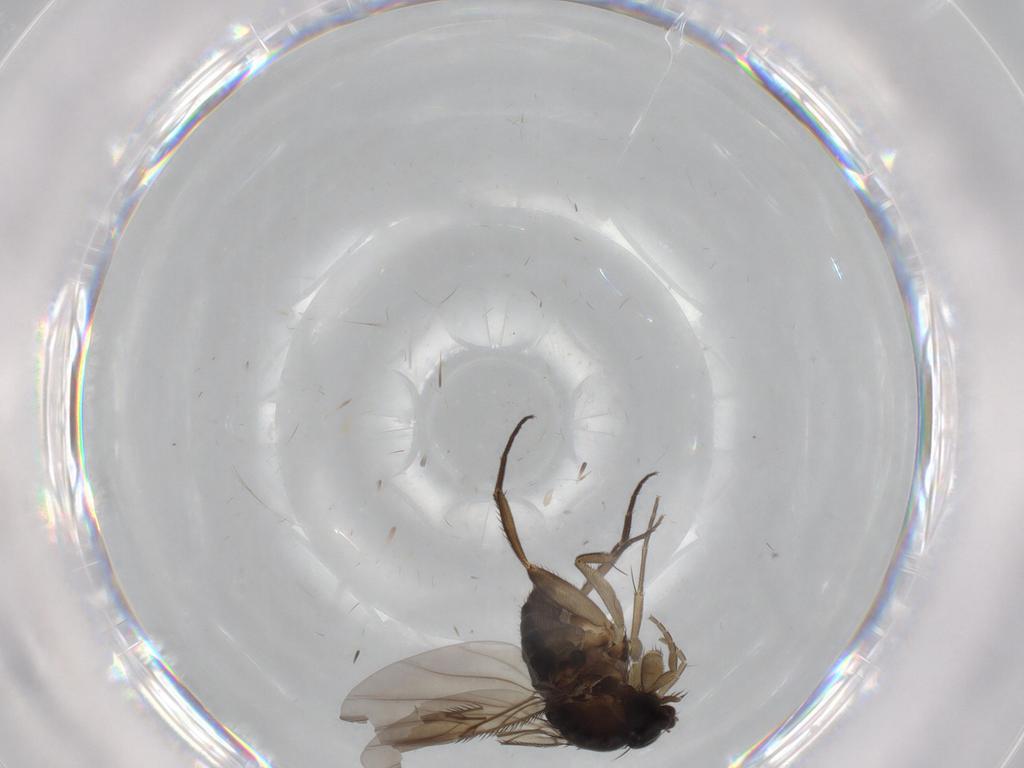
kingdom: Animalia
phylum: Arthropoda
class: Insecta
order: Diptera
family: Phoridae
